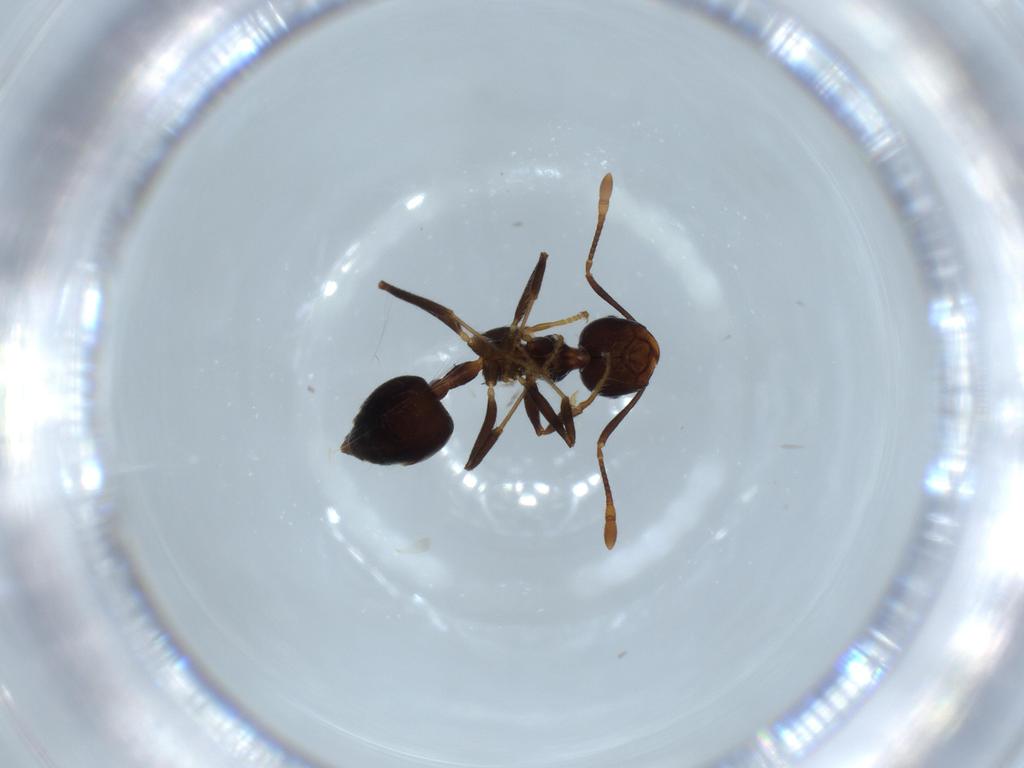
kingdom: Animalia
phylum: Arthropoda
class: Insecta
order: Hymenoptera
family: Formicidae
